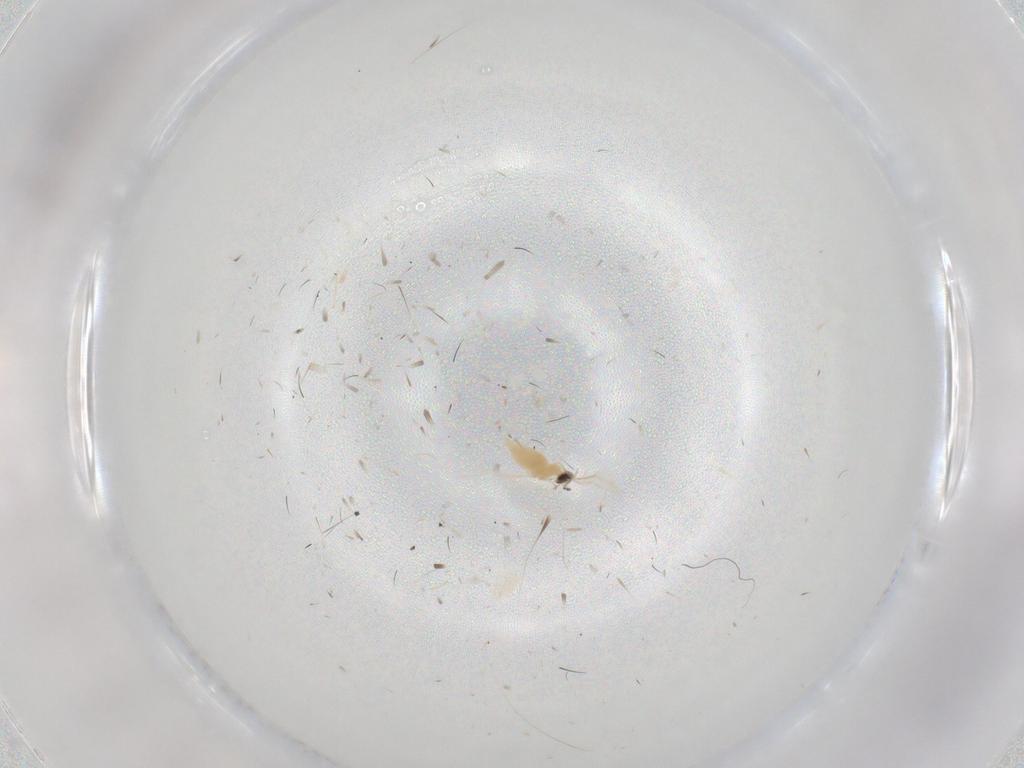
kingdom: Animalia
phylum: Arthropoda
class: Insecta
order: Diptera
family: Cecidomyiidae
